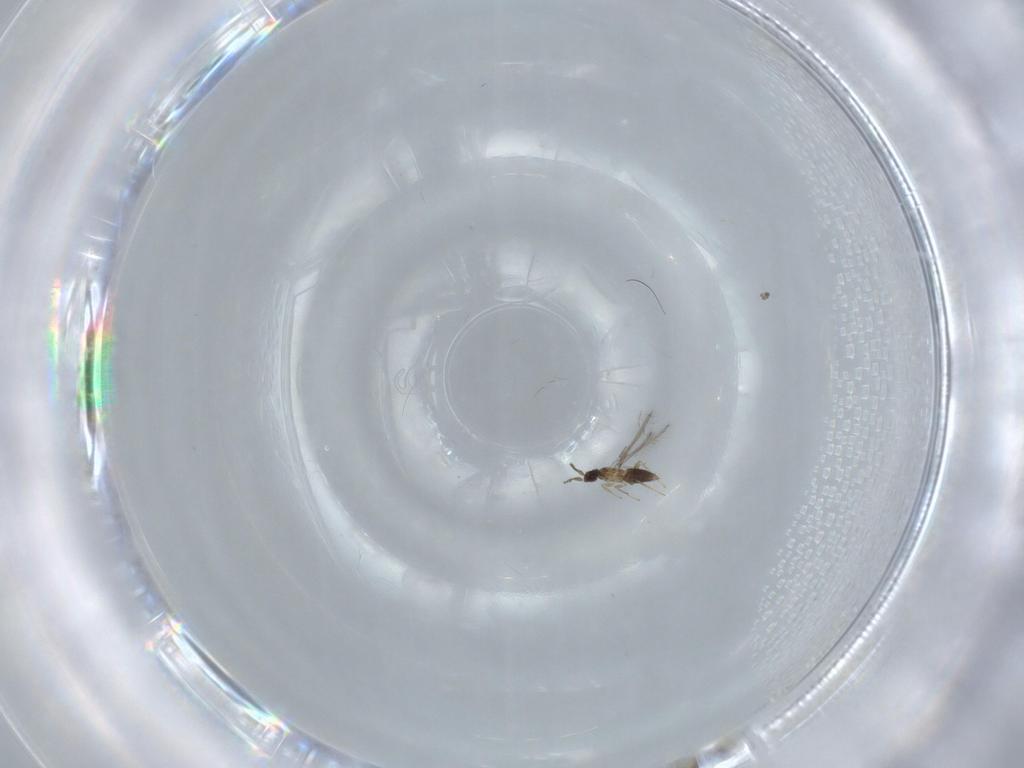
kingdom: Animalia
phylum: Arthropoda
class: Insecta
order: Hymenoptera
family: Mymaridae
